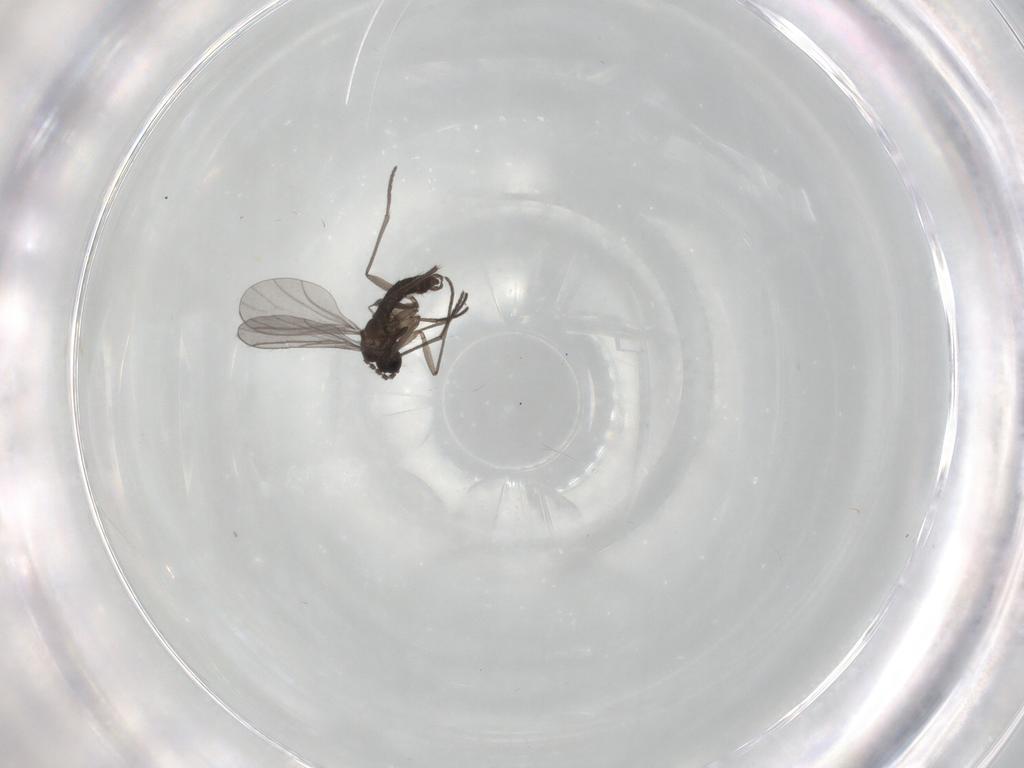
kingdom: Animalia
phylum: Arthropoda
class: Insecta
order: Diptera
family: Sciaridae
